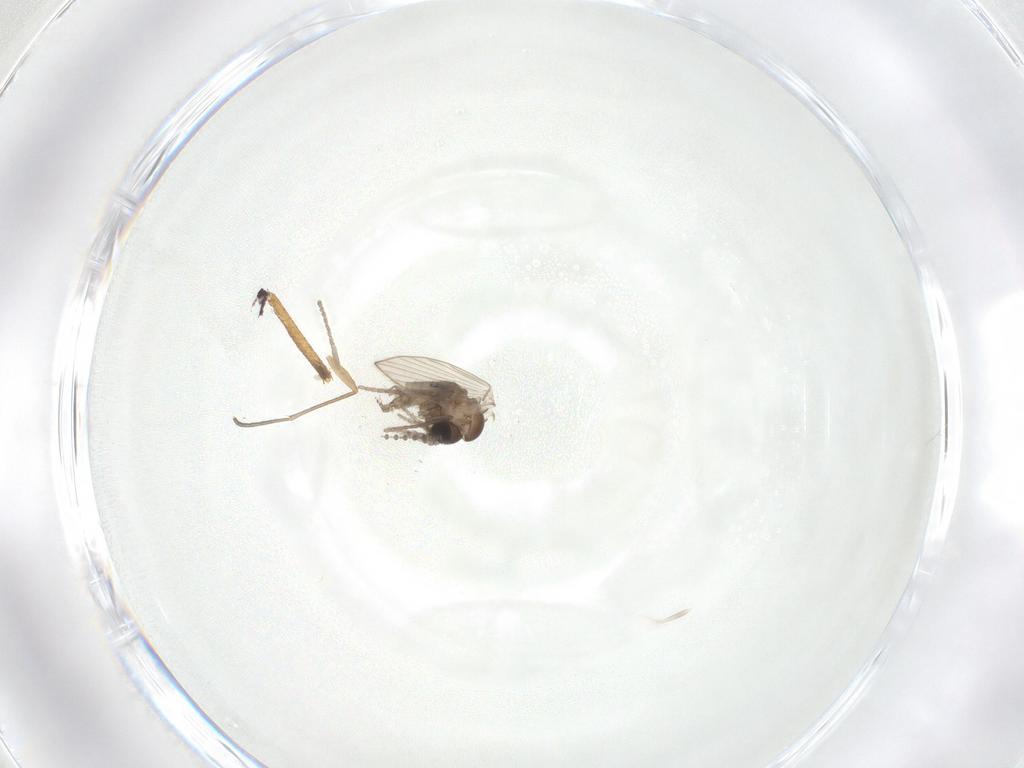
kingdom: Animalia
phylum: Arthropoda
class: Insecta
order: Diptera
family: Psychodidae
